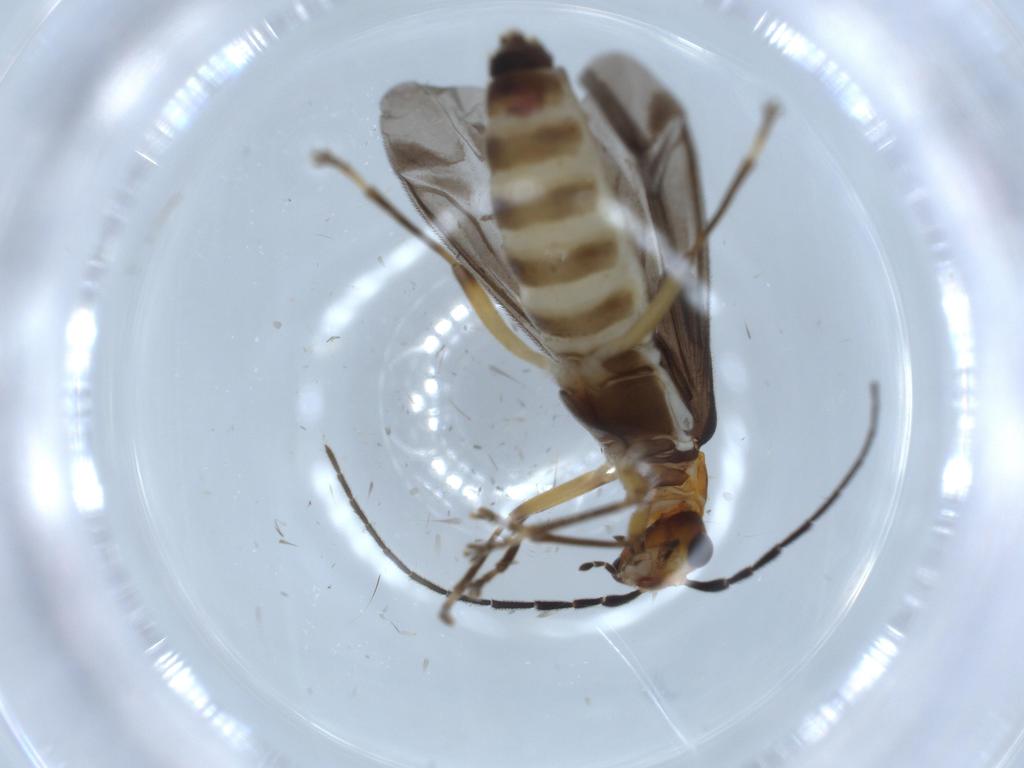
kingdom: Animalia
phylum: Arthropoda
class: Insecta
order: Coleoptera
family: Cantharidae
